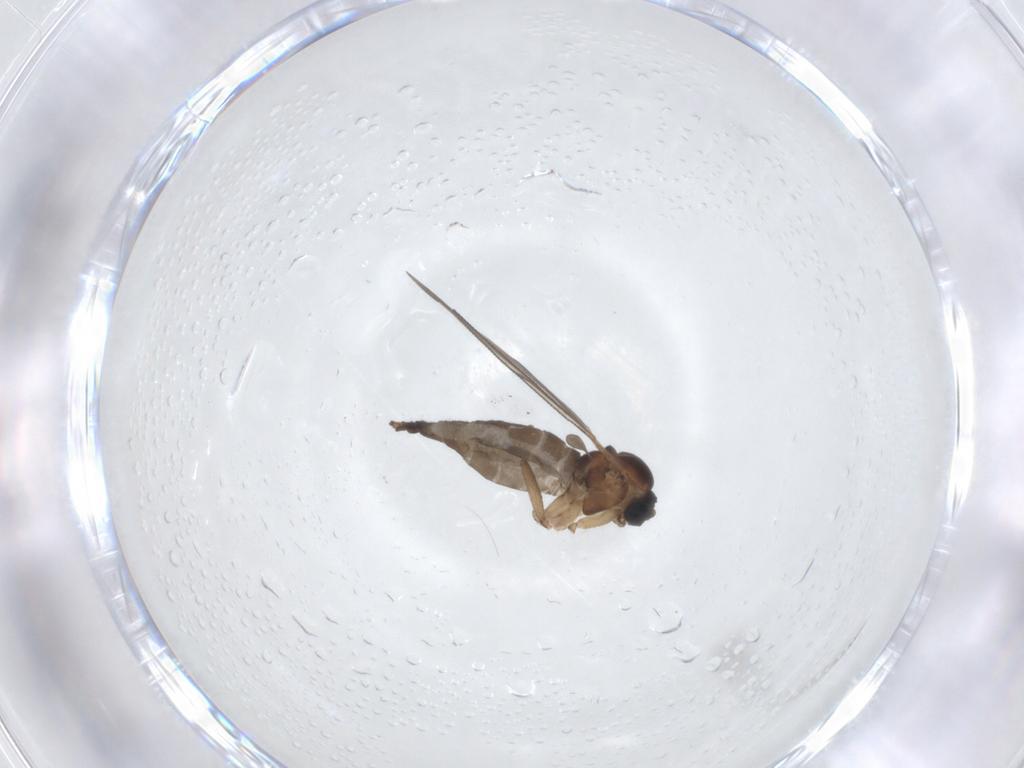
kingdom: Animalia
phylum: Arthropoda
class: Insecta
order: Diptera
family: Sciaridae
